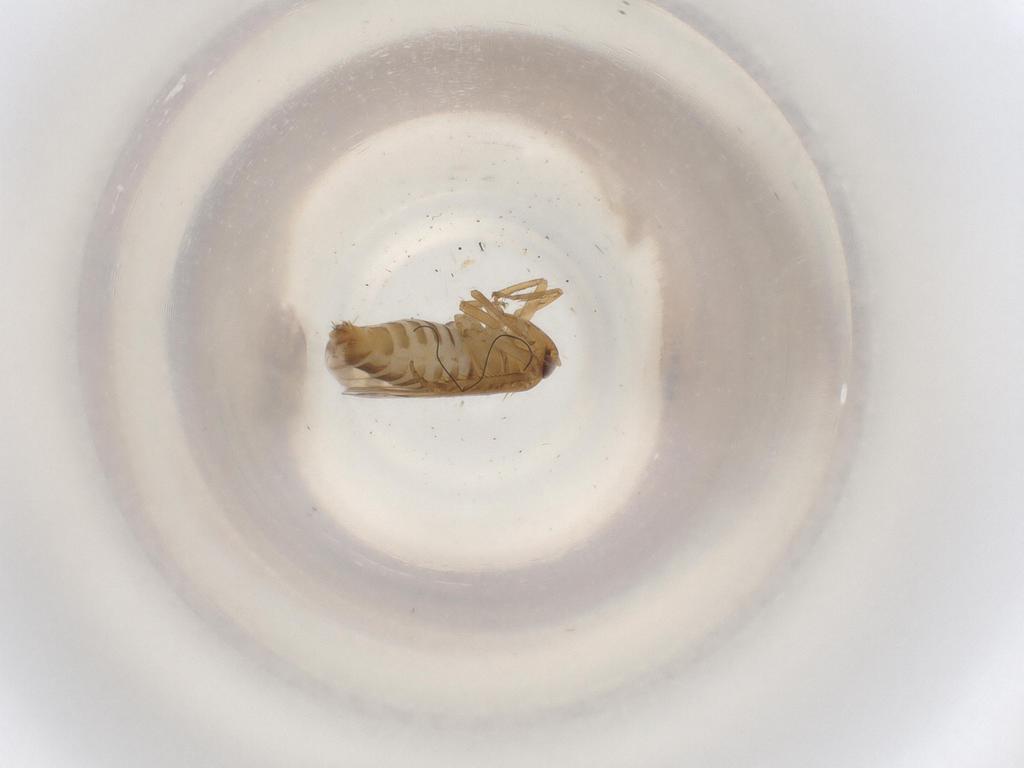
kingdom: Animalia
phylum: Arthropoda
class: Insecta
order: Hemiptera
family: Cicadellidae
